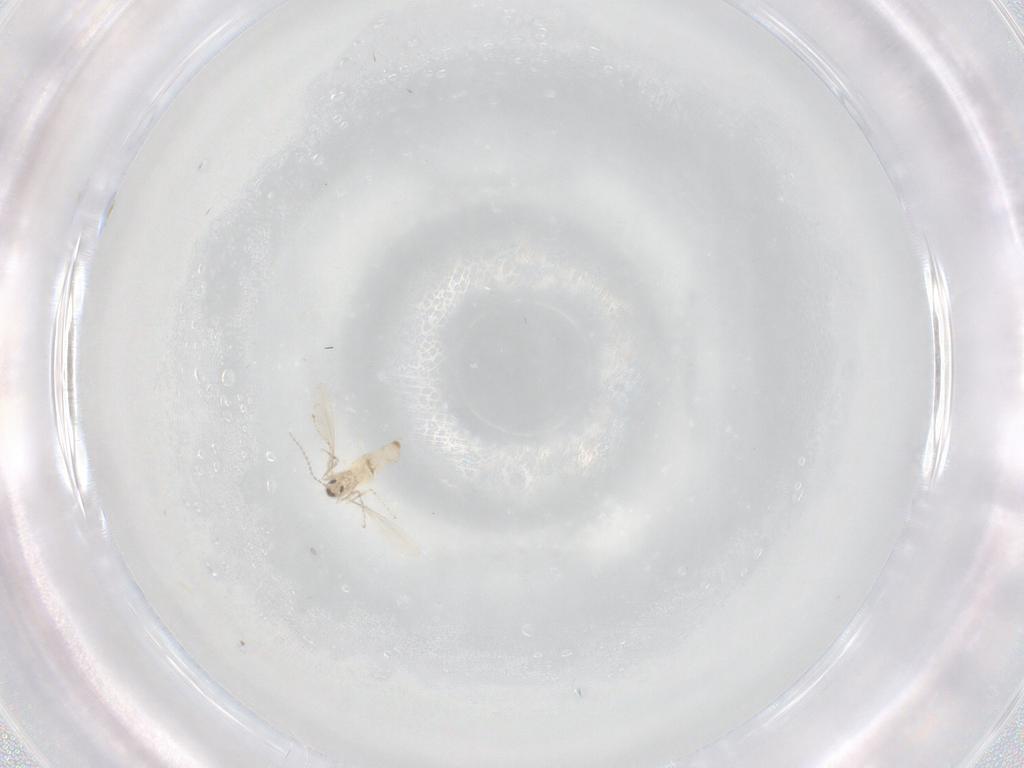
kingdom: Animalia
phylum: Arthropoda
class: Insecta
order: Diptera
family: Cecidomyiidae
